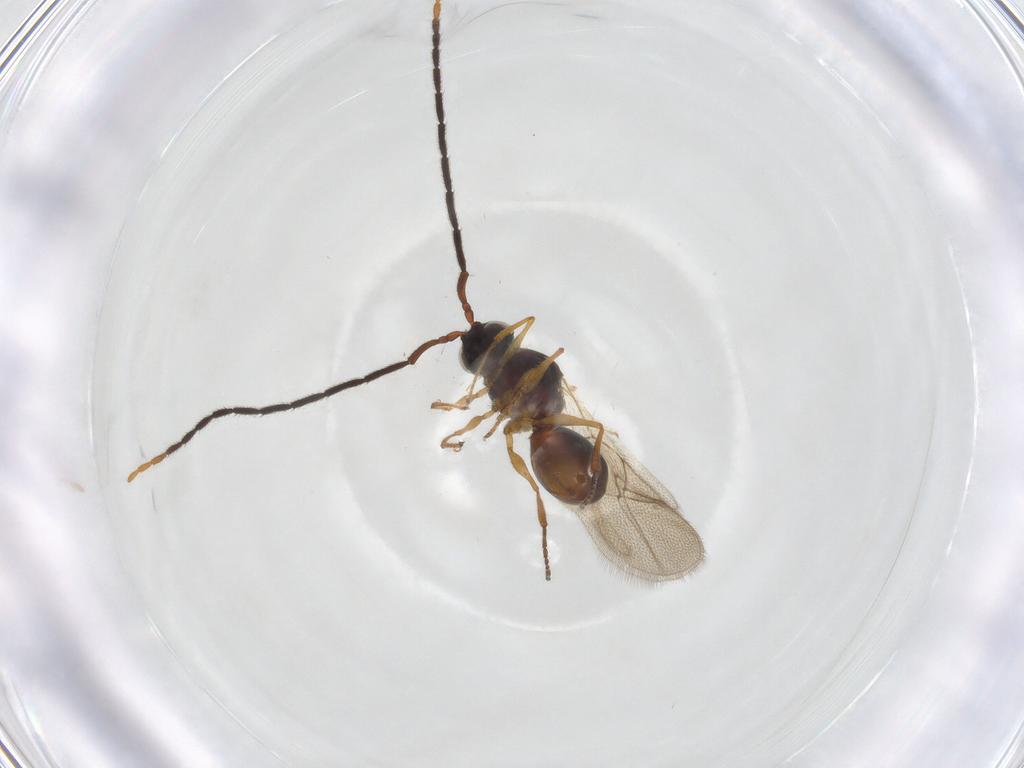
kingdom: Animalia
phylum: Arthropoda
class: Insecta
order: Hymenoptera
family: Figitidae
